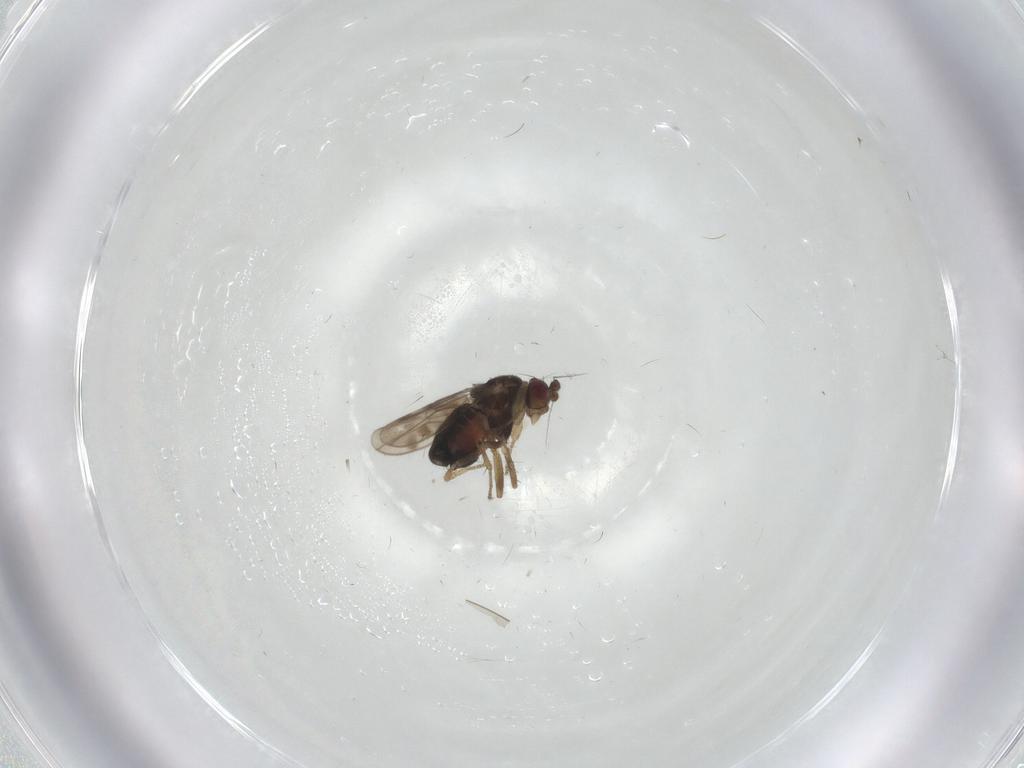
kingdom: Animalia
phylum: Arthropoda
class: Insecta
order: Diptera
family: Sphaeroceridae
